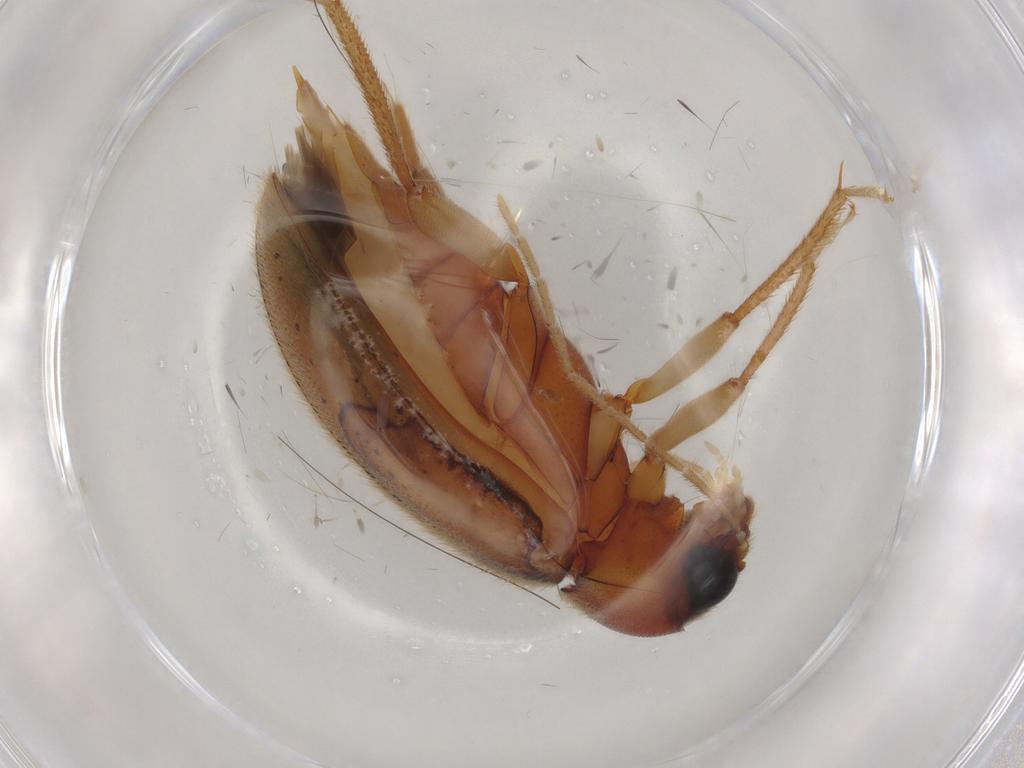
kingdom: Animalia
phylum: Arthropoda
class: Insecta
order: Coleoptera
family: Ptilodactylidae
